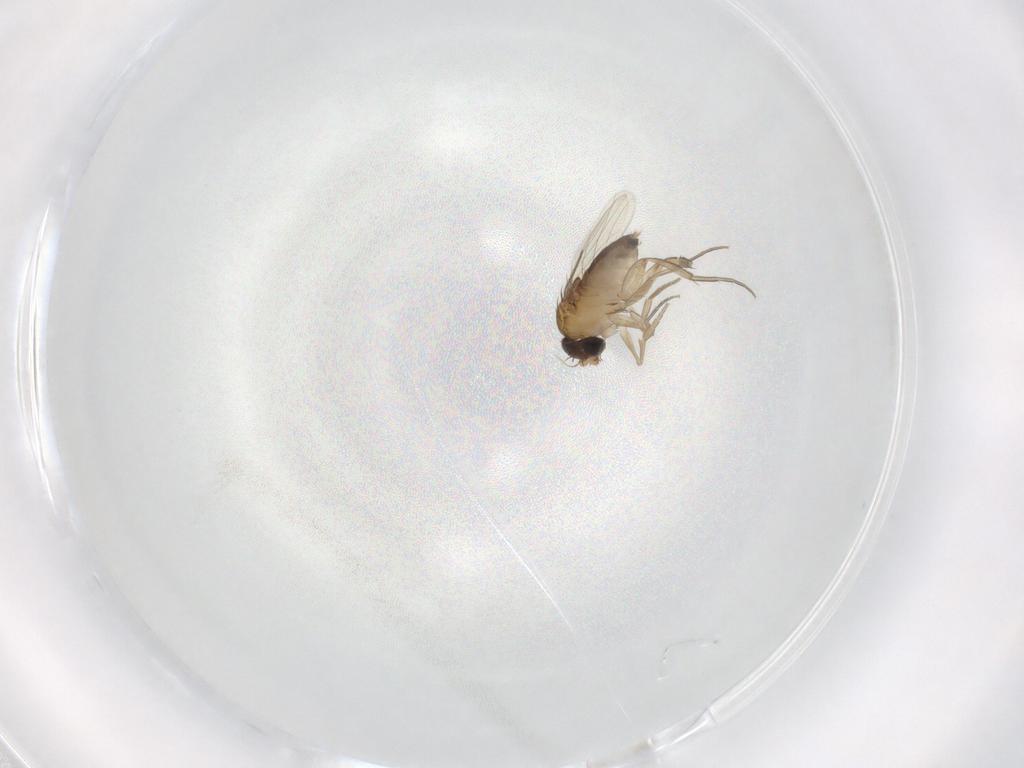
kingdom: Animalia
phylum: Arthropoda
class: Insecta
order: Diptera
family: Phoridae
